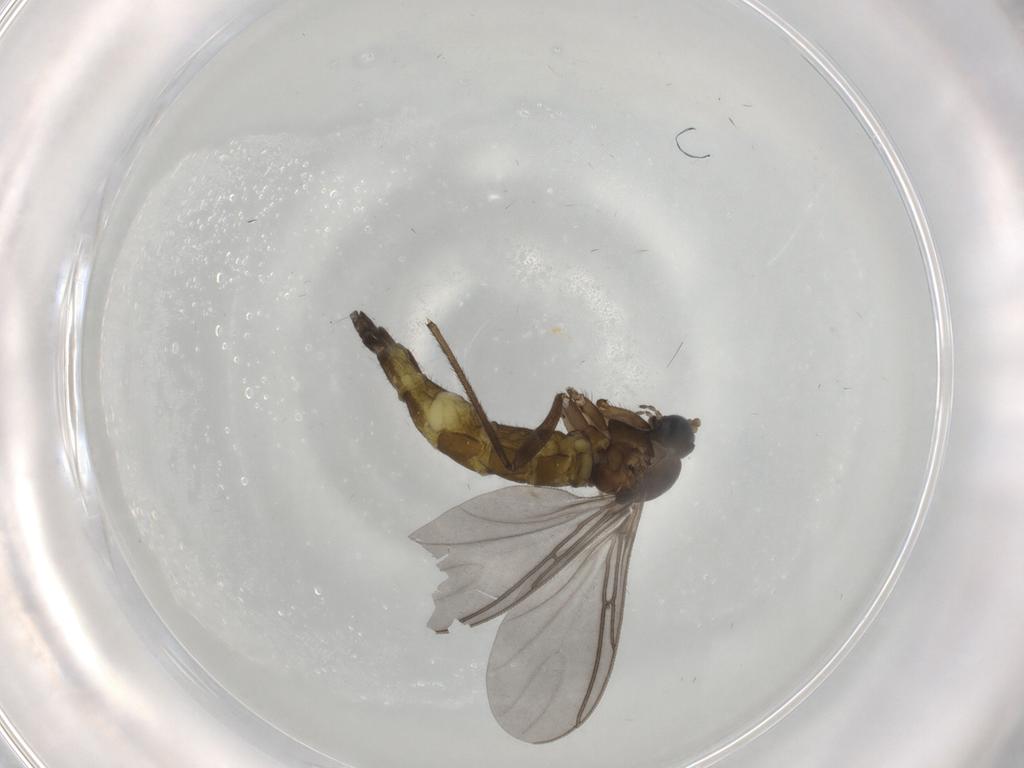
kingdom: Animalia
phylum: Arthropoda
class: Insecta
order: Diptera
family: Sciaridae
